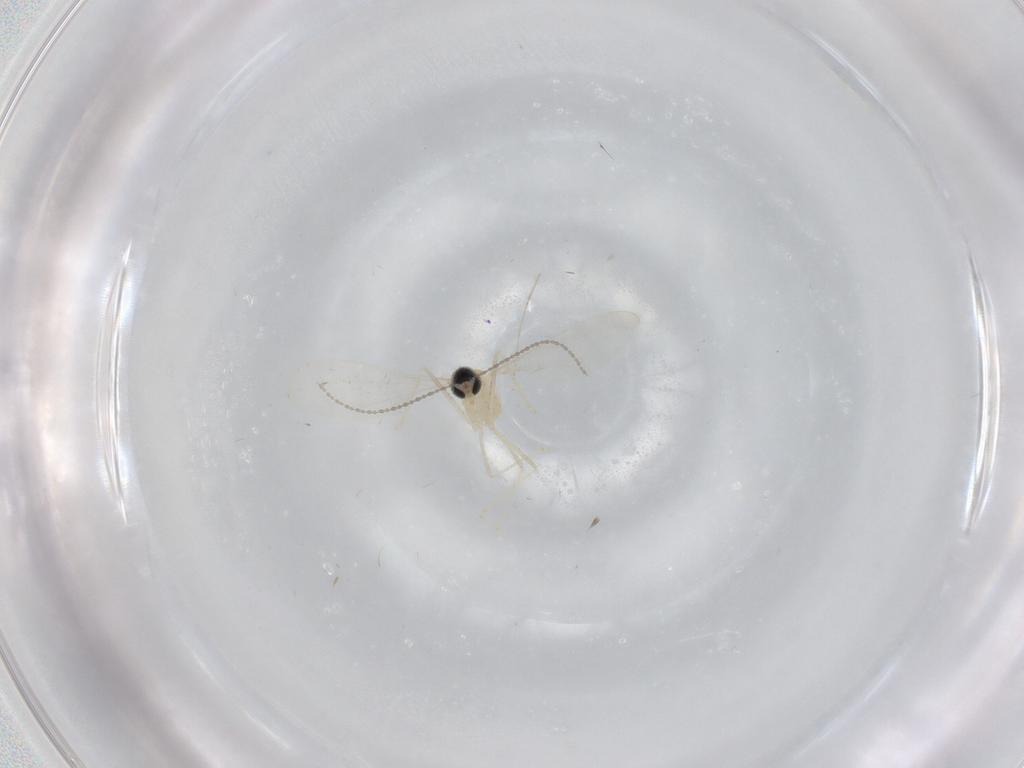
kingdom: Animalia
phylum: Arthropoda
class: Insecta
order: Diptera
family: Cecidomyiidae
